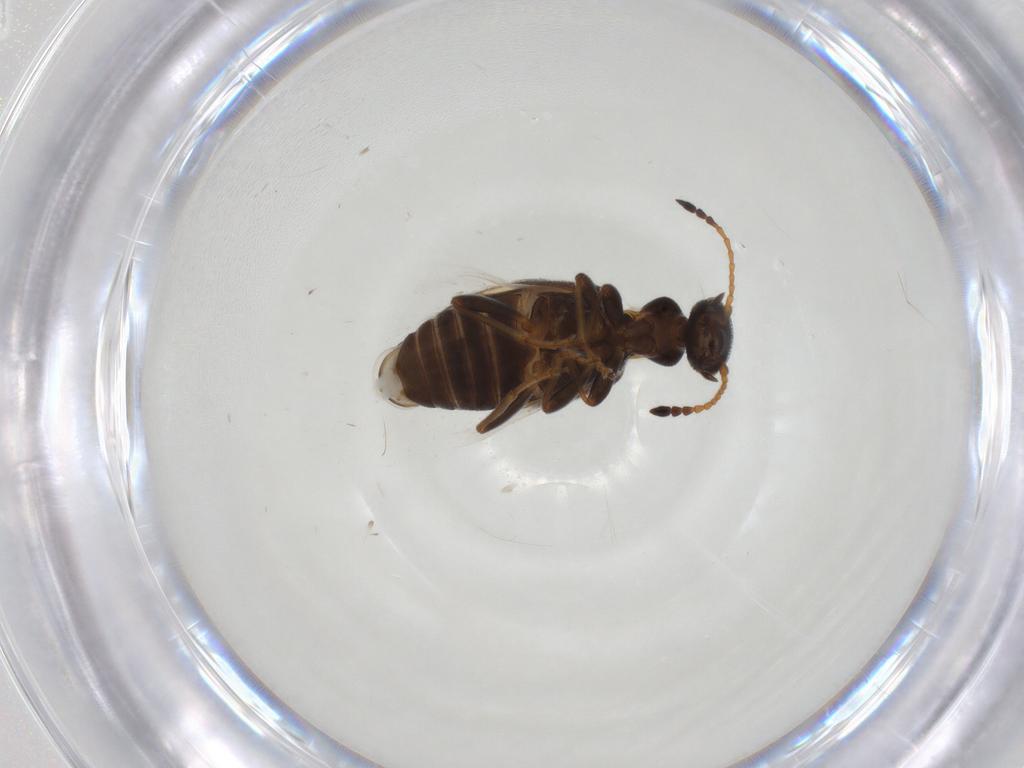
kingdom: Animalia
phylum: Arthropoda
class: Insecta
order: Coleoptera
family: Anthicidae
